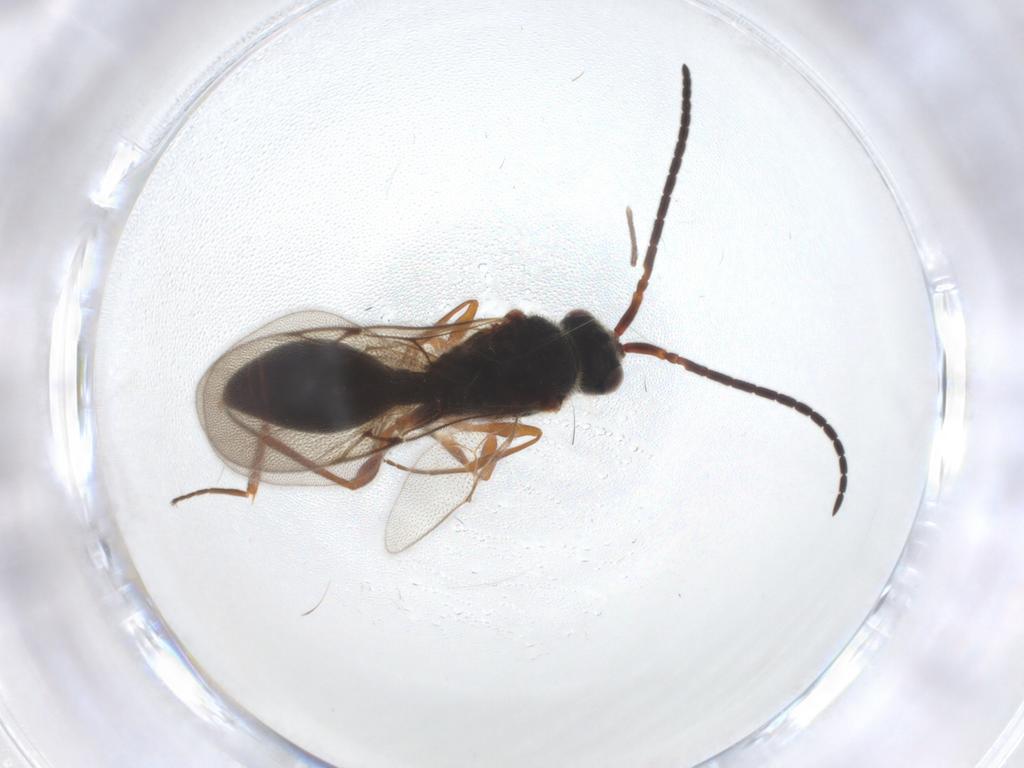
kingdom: Animalia
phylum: Arthropoda
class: Insecta
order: Hymenoptera
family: Diapriidae
